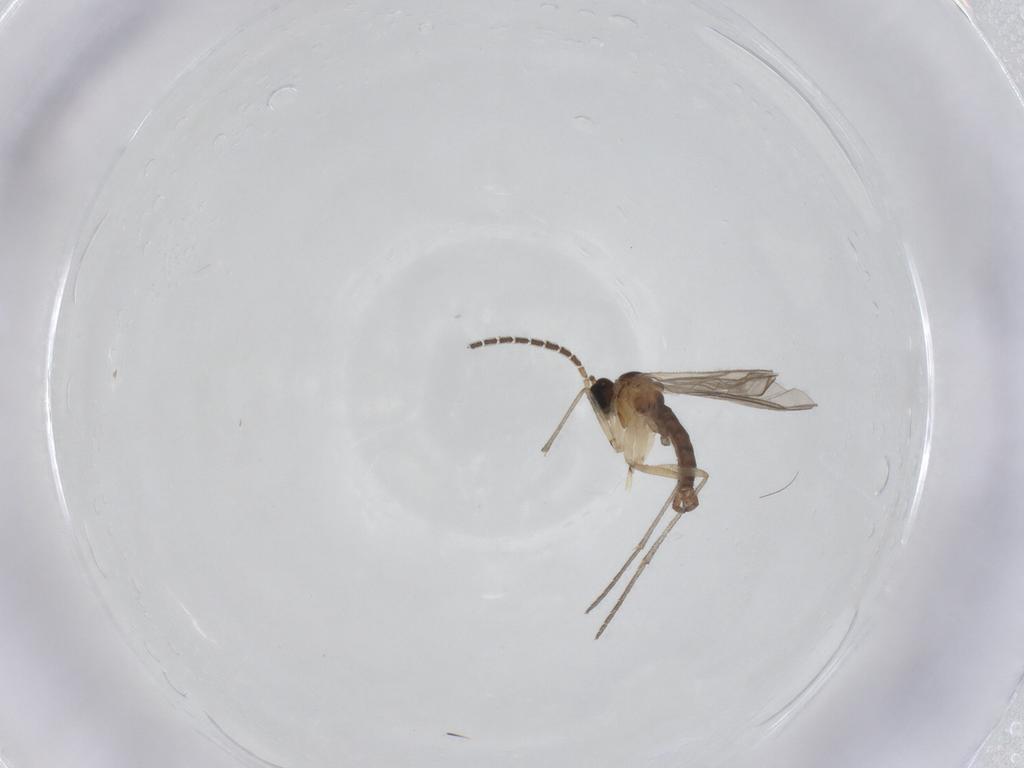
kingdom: Animalia
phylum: Arthropoda
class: Insecta
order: Diptera
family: Sciaridae
